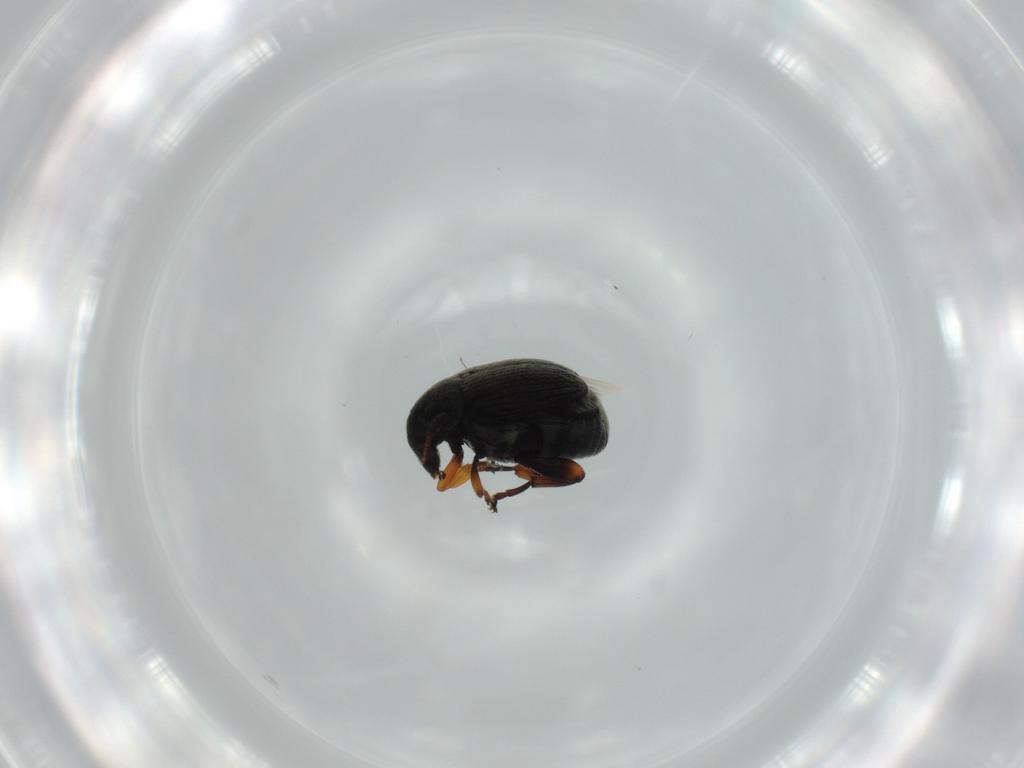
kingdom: Animalia
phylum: Arthropoda
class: Insecta
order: Coleoptera
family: Chrysomelidae
